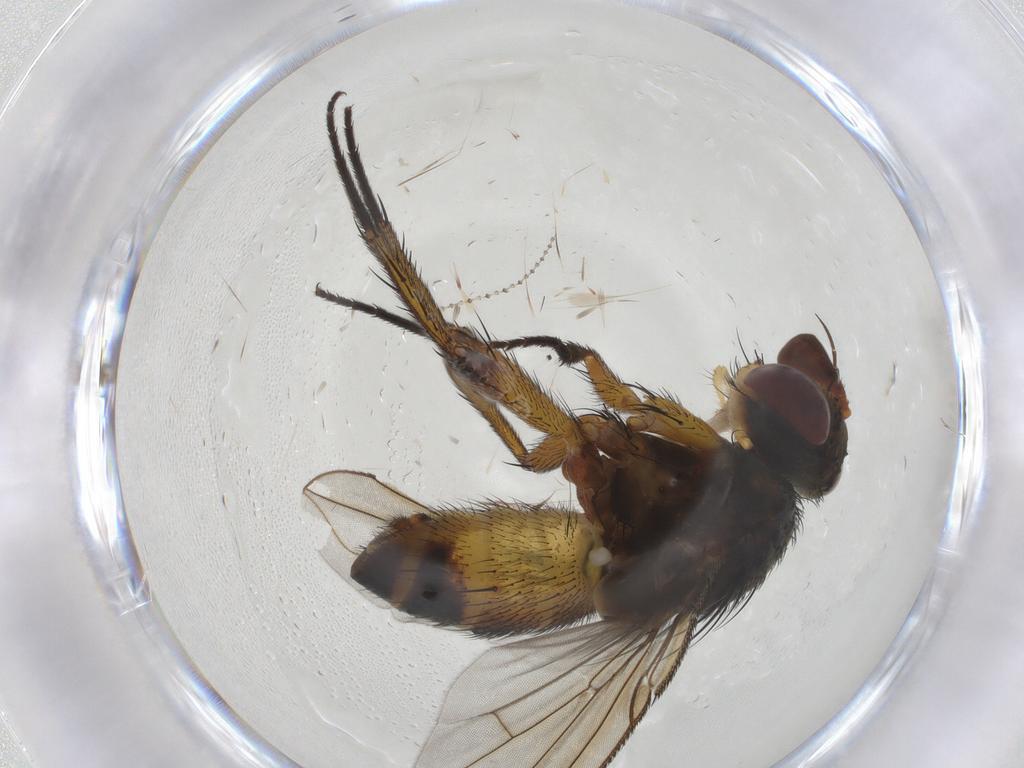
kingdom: Animalia
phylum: Arthropoda
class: Insecta
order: Diptera
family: Cecidomyiidae
